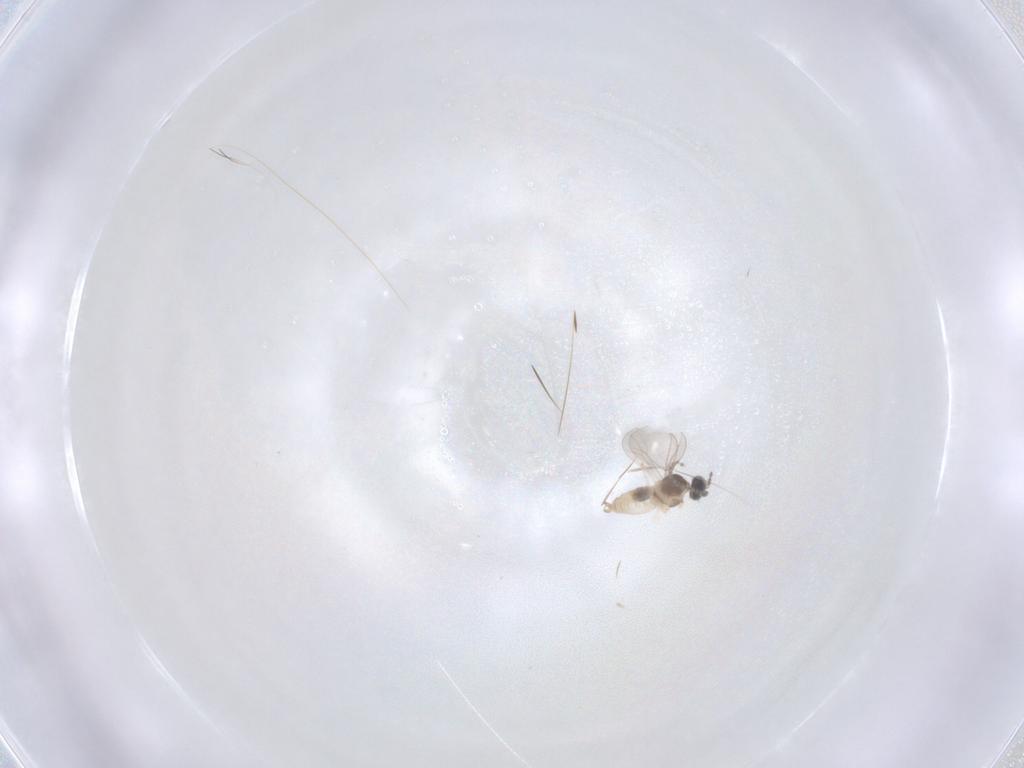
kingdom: Animalia
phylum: Arthropoda
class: Insecta
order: Diptera
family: Cecidomyiidae
